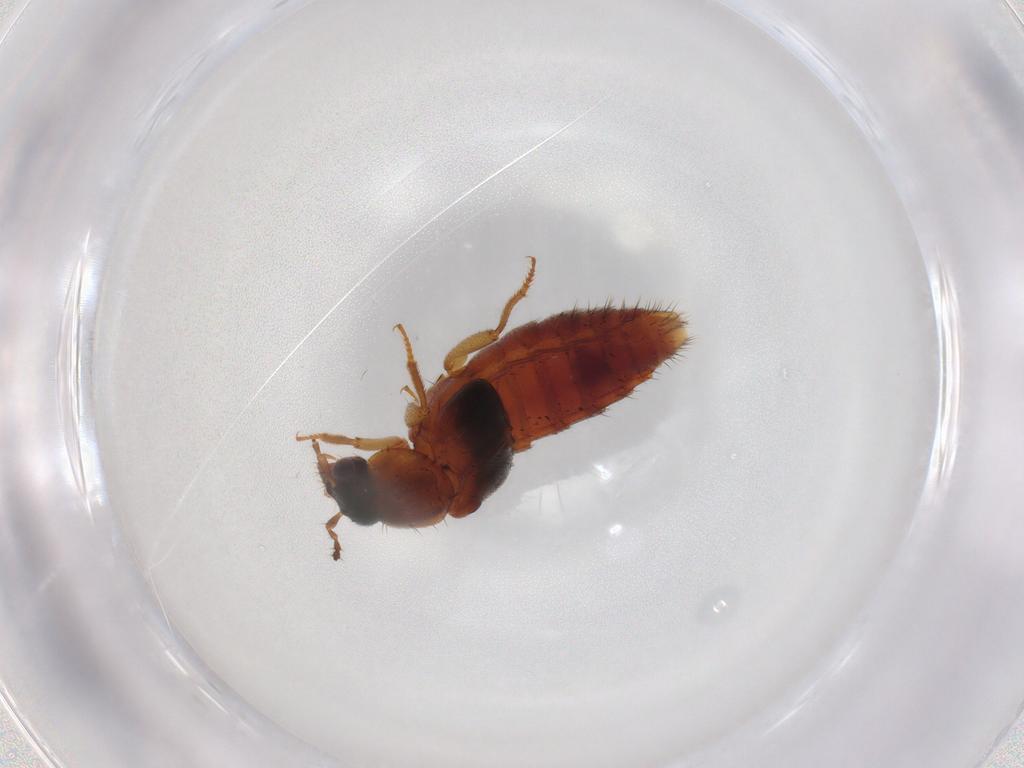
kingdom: Animalia
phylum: Arthropoda
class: Insecta
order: Coleoptera
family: Staphylinidae
